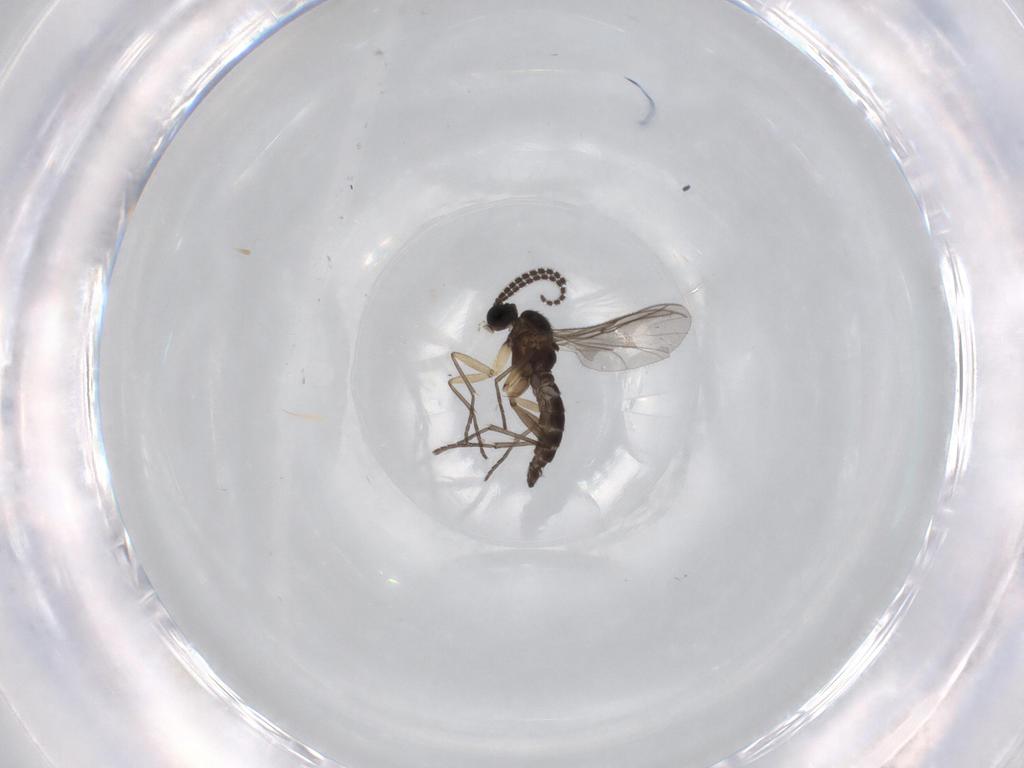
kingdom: Animalia
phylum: Arthropoda
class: Insecta
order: Diptera
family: Sciaridae
